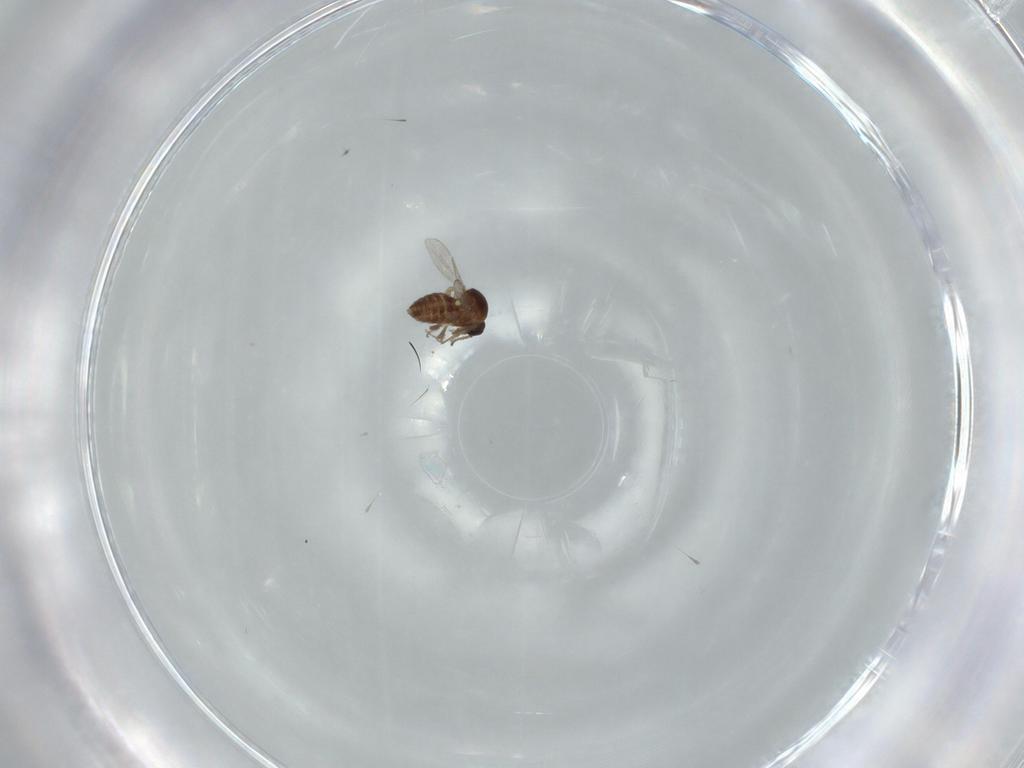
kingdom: Animalia
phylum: Arthropoda
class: Insecta
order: Diptera
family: Ceratopogonidae
